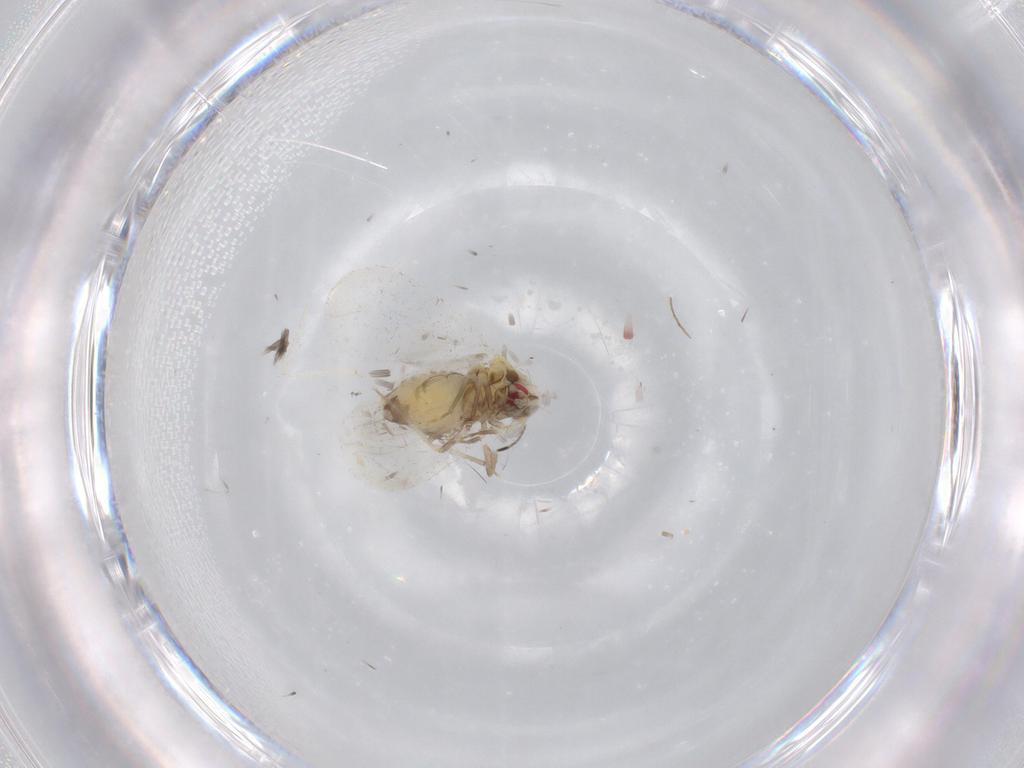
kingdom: Animalia
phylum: Arthropoda
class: Insecta
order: Hemiptera
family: Aleyrodidae
